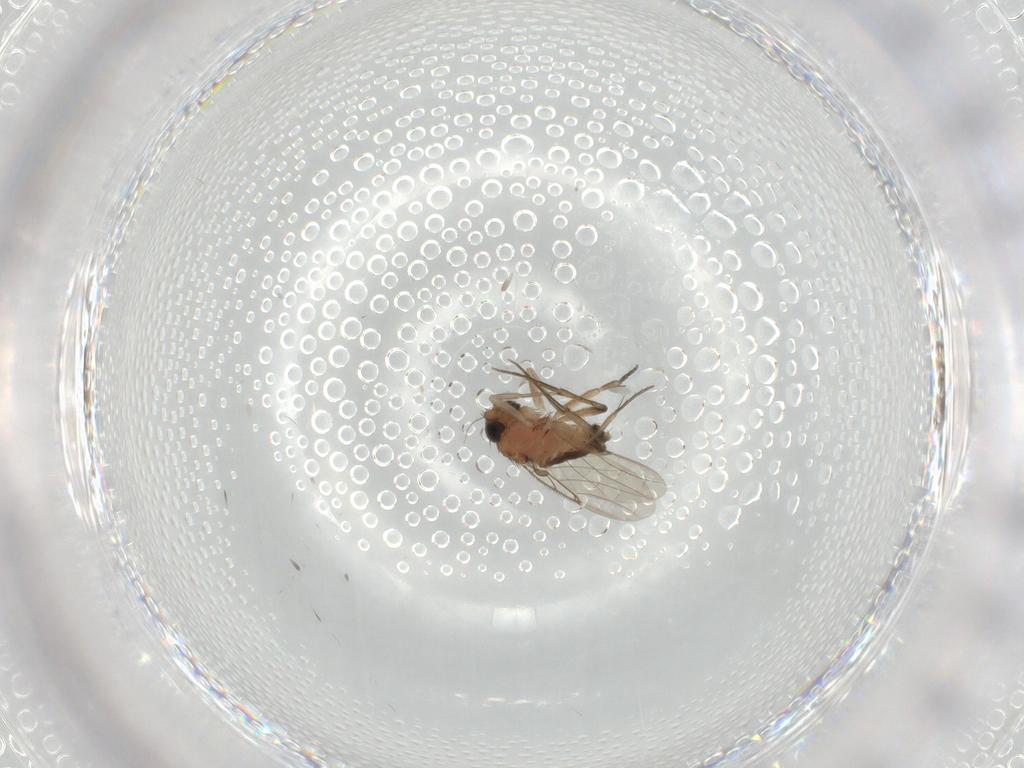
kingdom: Animalia
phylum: Arthropoda
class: Insecta
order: Diptera
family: Phoridae
